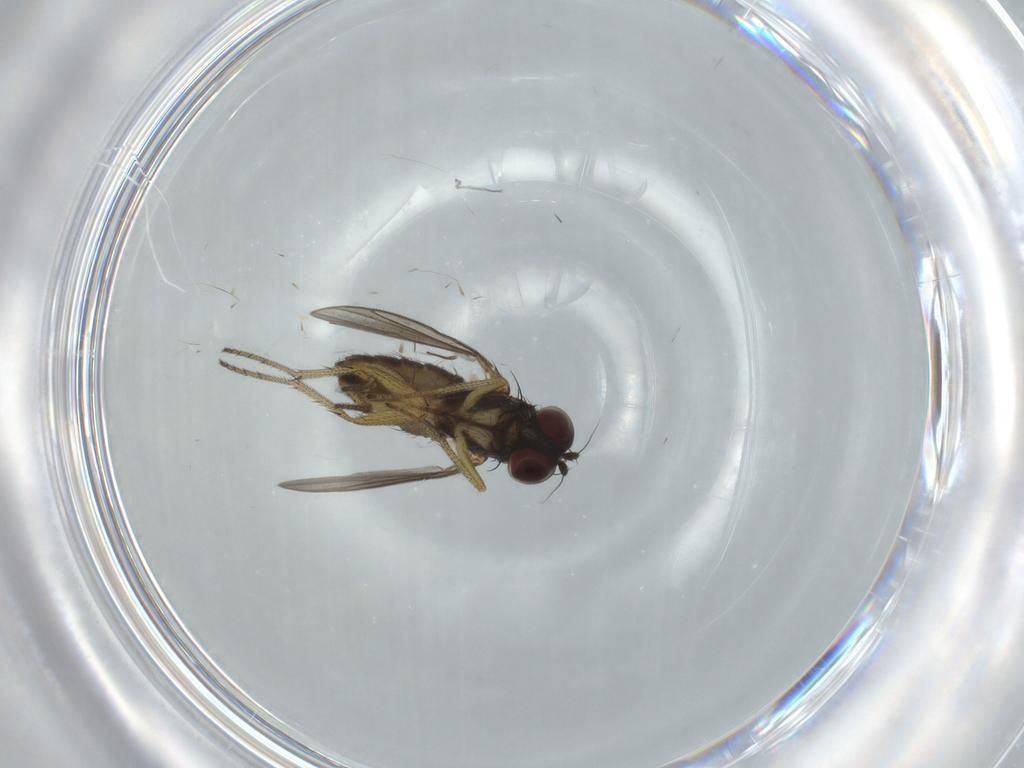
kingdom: Animalia
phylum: Arthropoda
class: Insecta
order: Diptera
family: Dolichopodidae
